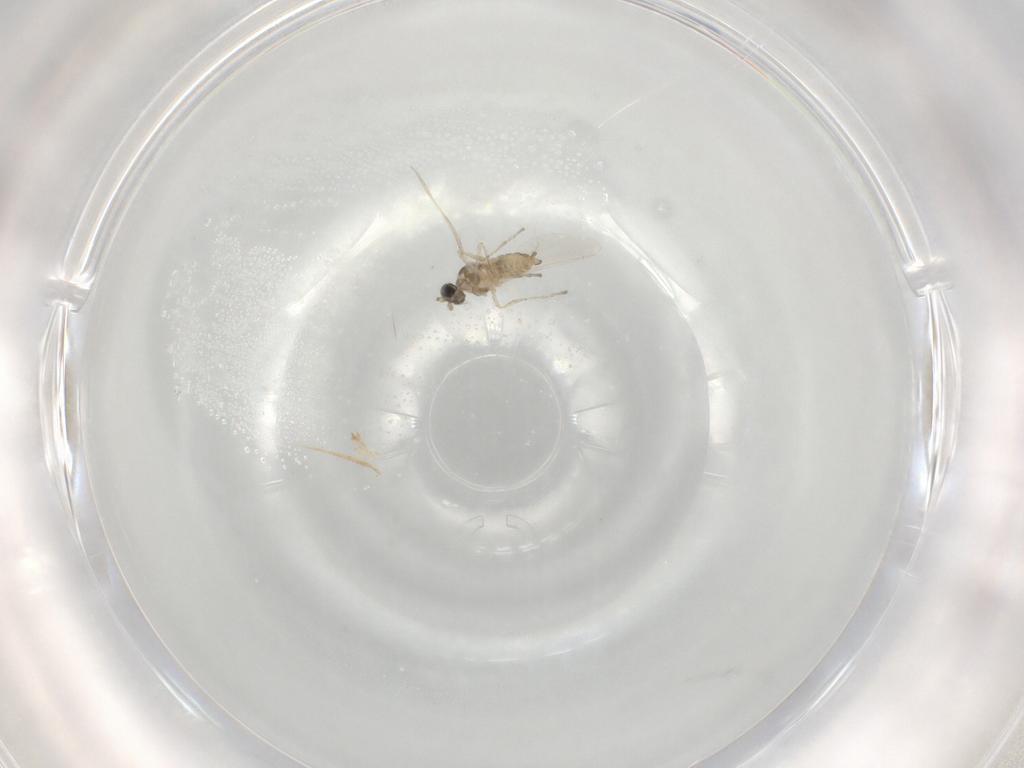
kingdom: Animalia
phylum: Arthropoda
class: Insecta
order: Diptera
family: Cecidomyiidae
